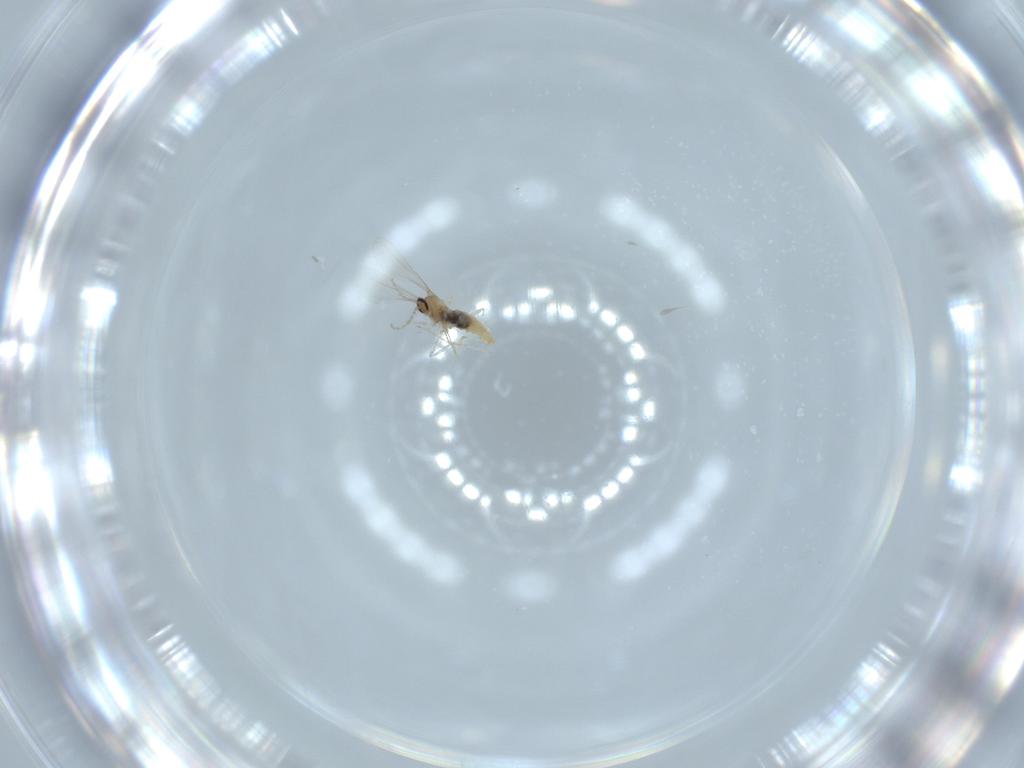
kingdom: Animalia
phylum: Arthropoda
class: Insecta
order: Diptera
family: Cecidomyiidae
